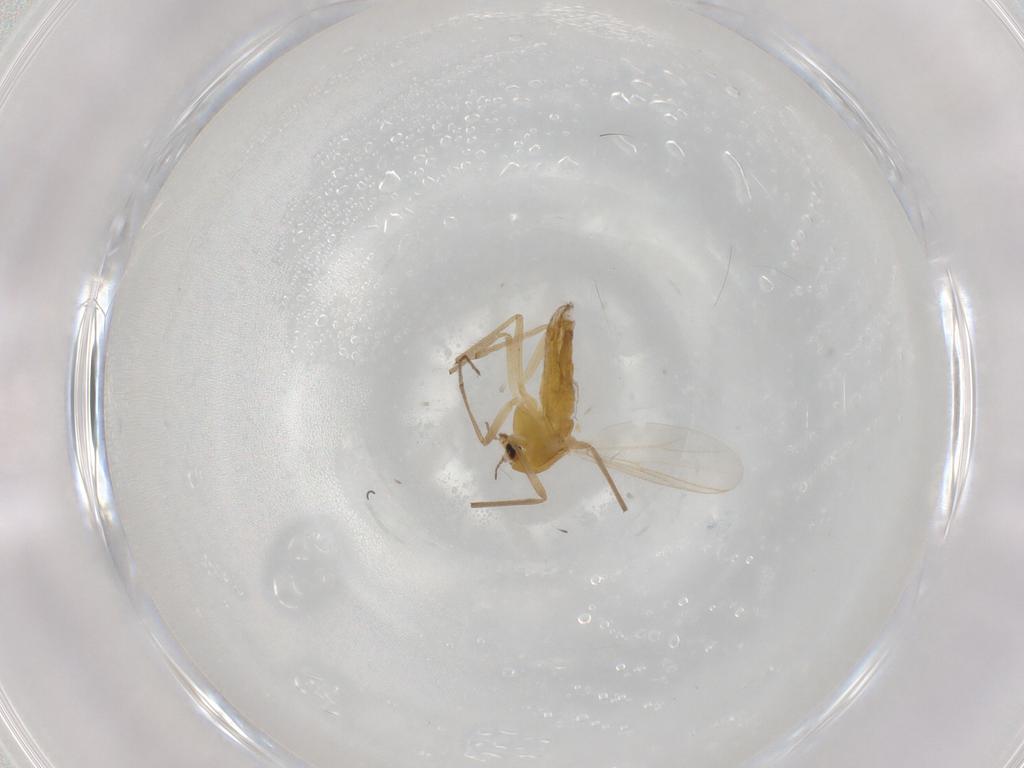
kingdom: Animalia
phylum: Arthropoda
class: Insecta
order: Diptera
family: Chironomidae
